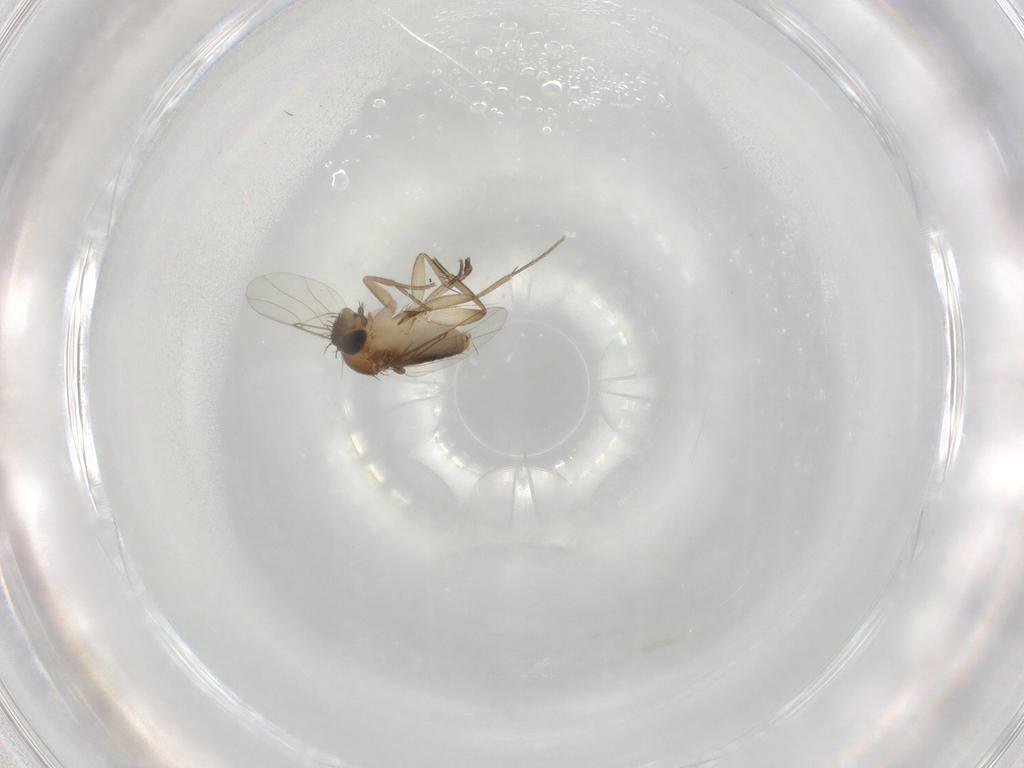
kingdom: Animalia
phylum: Arthropoda
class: Insecta
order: Diptera
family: Phoridae
